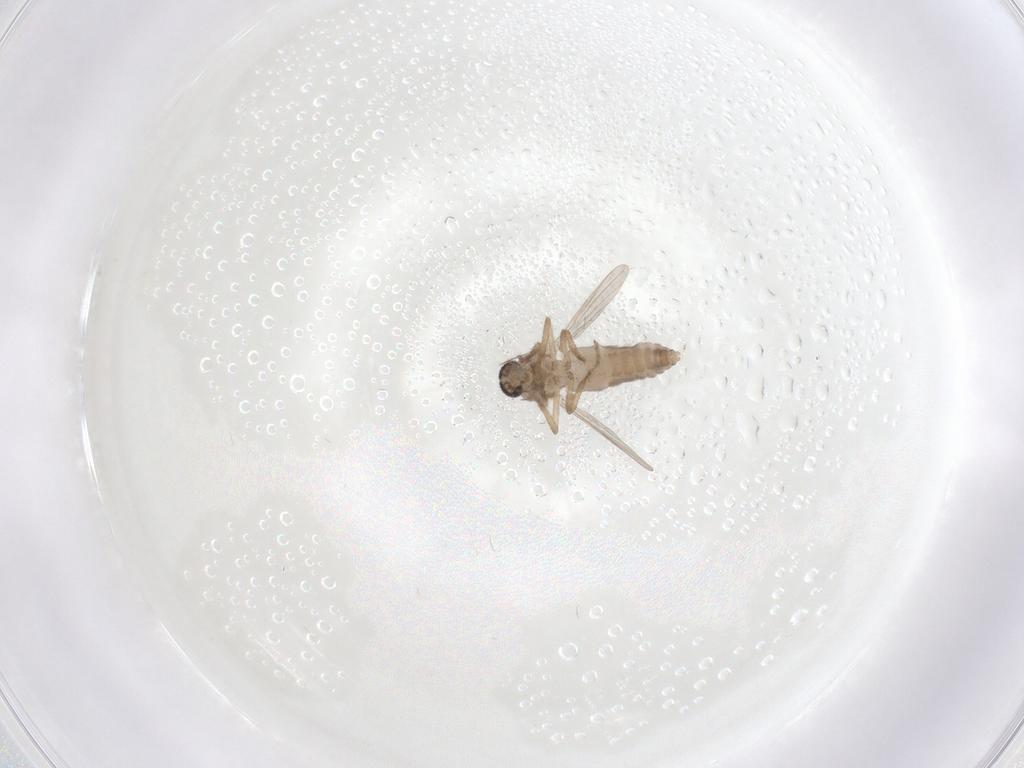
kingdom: Animalia
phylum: Arthropoda
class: Insecta
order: Diptera
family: Ceratopogonidae
